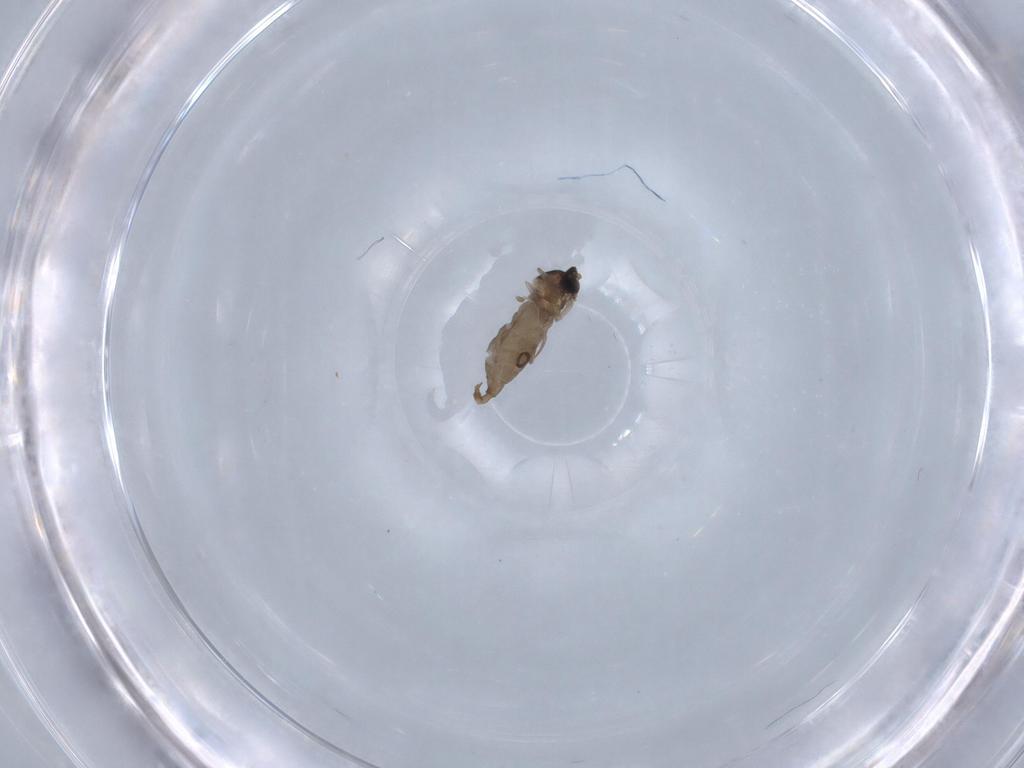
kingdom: Animalia
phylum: Arthropoda
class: Insecta
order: Diptera
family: Cecidomyiidae
